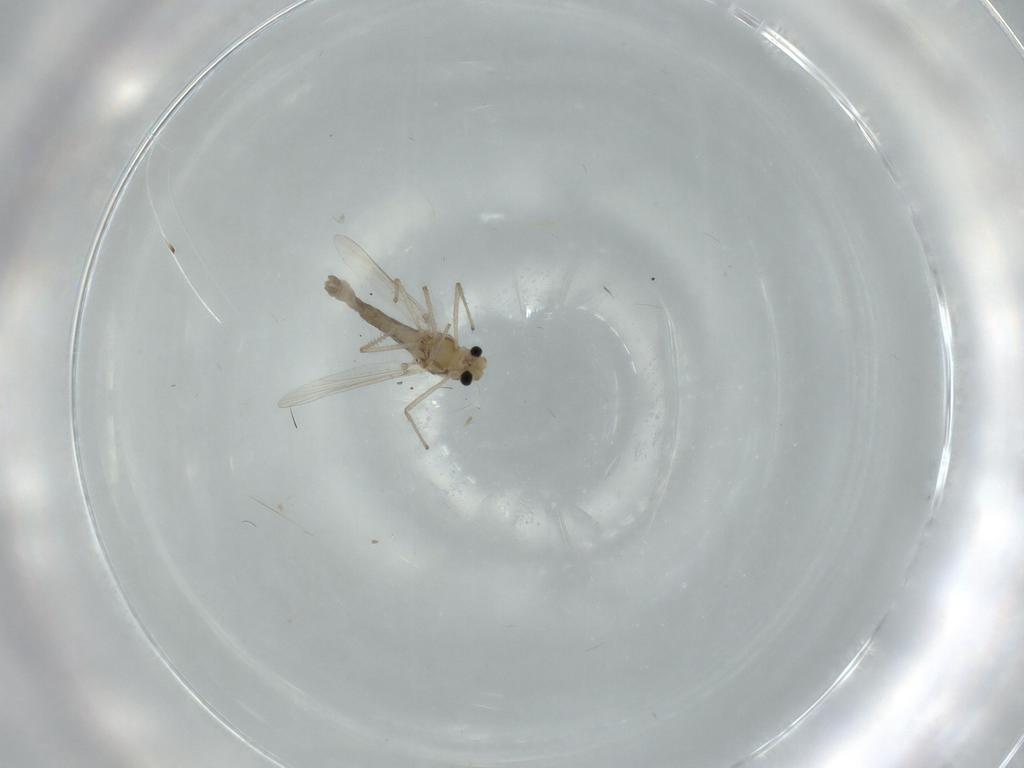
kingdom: Animalia
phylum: Arthropoda
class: Insecta
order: Diptera
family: Chironomidae
